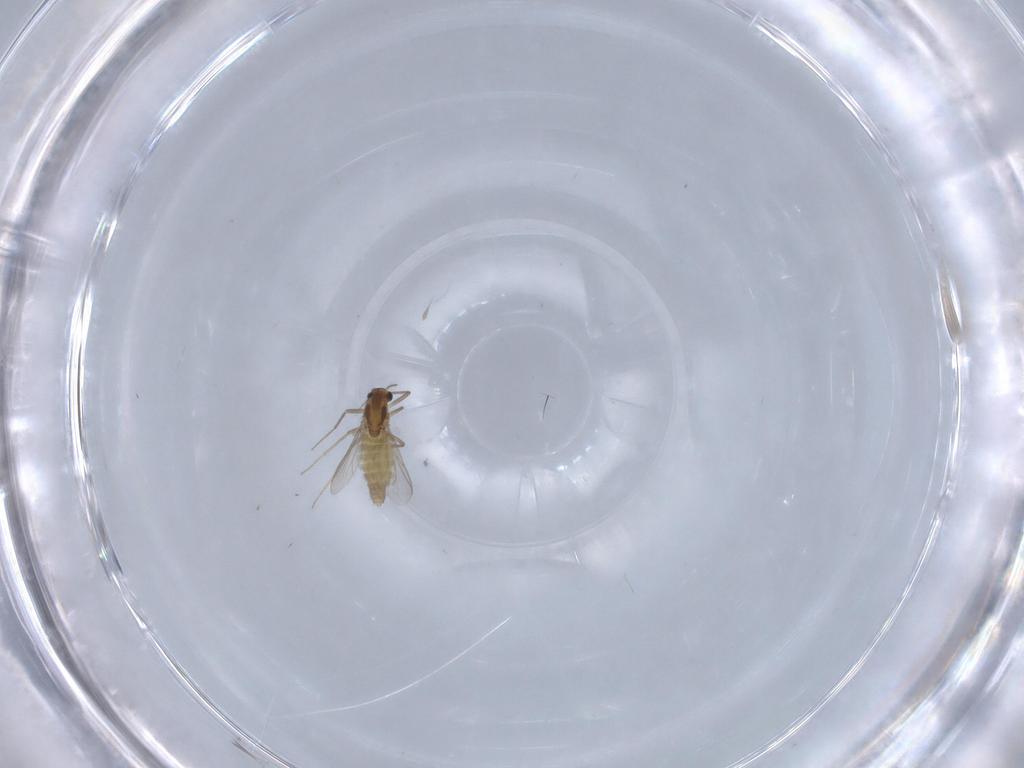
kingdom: Animalia
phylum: Arthropoda
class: Insecta
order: Diptera
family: Chironomidae
